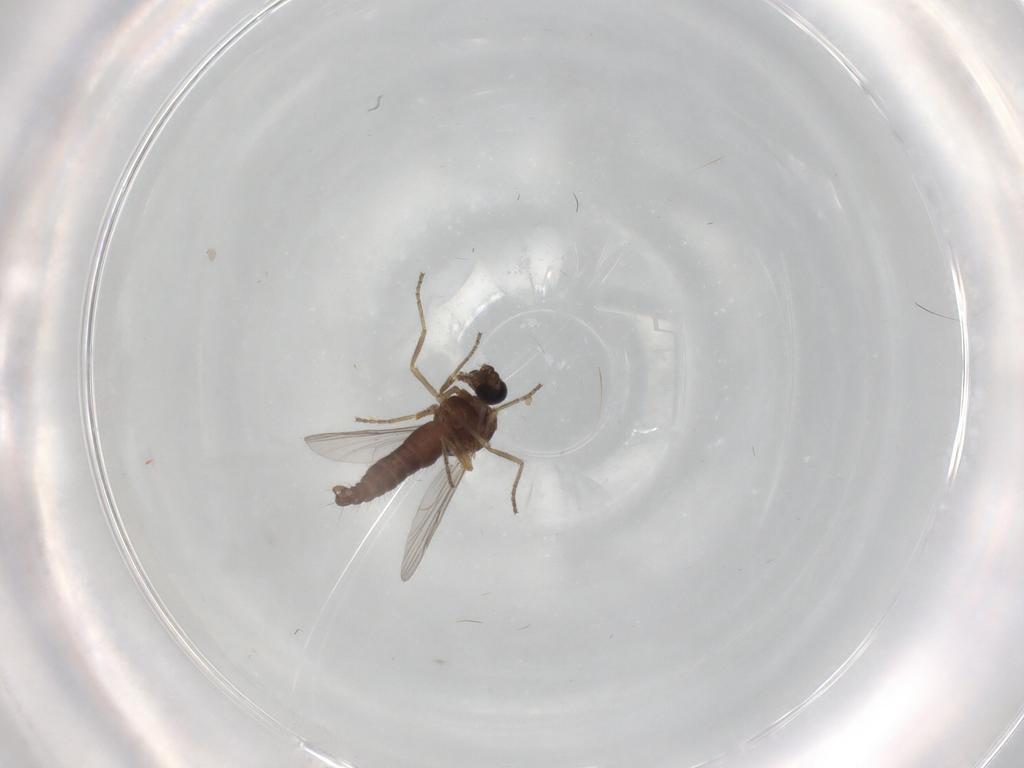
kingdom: Animalia
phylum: Arthropoda
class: Insecta
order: Diptera
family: Ceratopogonidae
